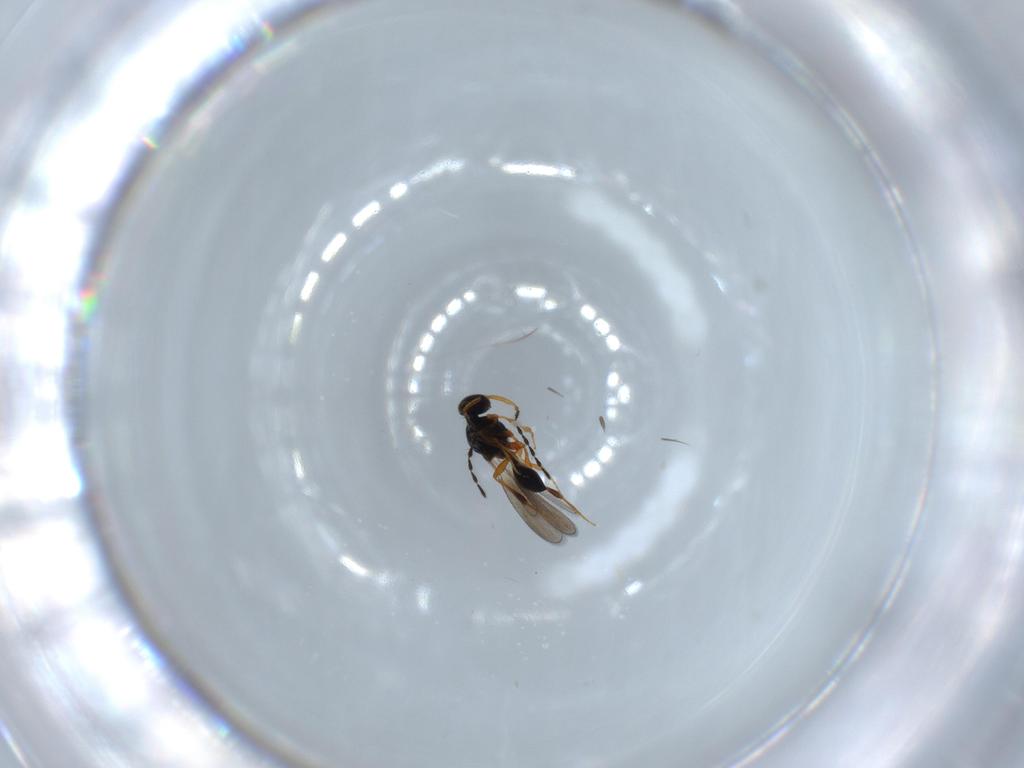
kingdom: Animalia
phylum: Arthropoda
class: Insecta
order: Hymenoptera
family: Platygastridae
